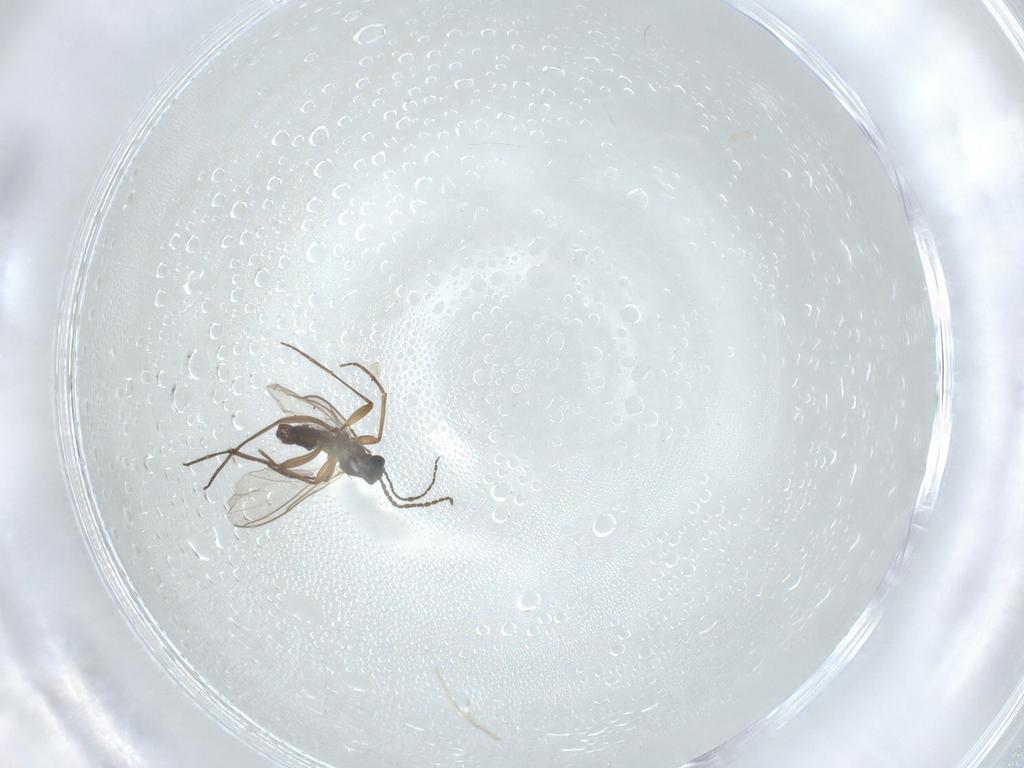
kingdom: Animalia
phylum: Arthropoda
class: Insecta
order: Diptera
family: Sciaridae
